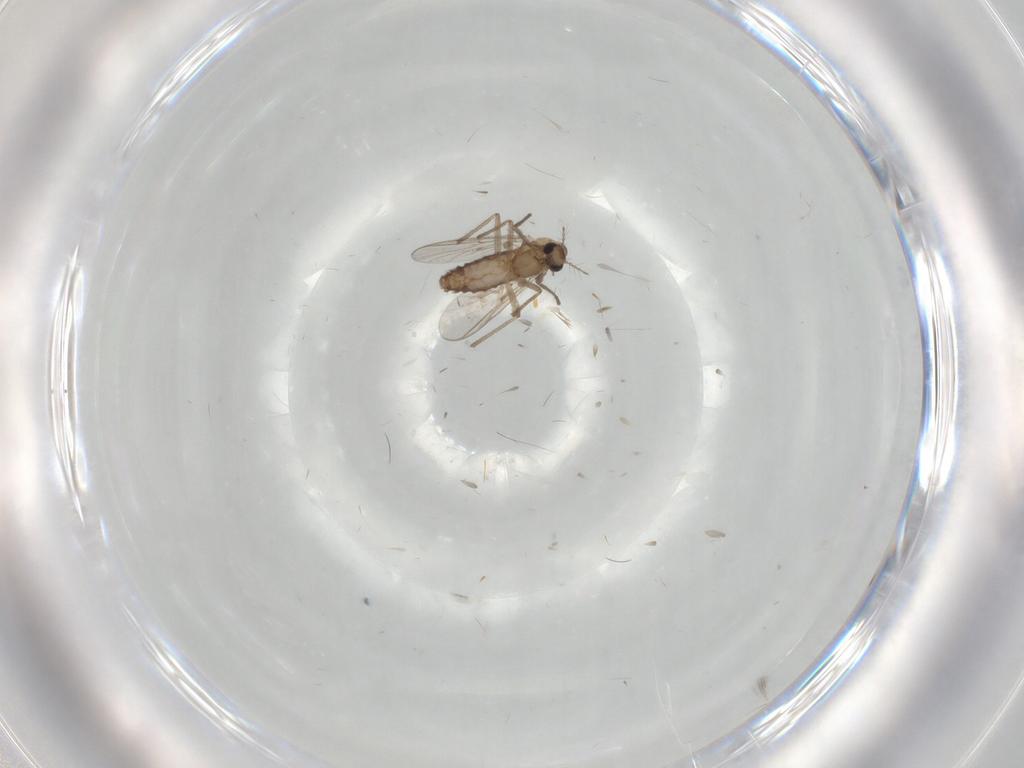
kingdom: Animalia
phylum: Arthropoda
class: Insecta
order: Diptera
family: Chironomidae
